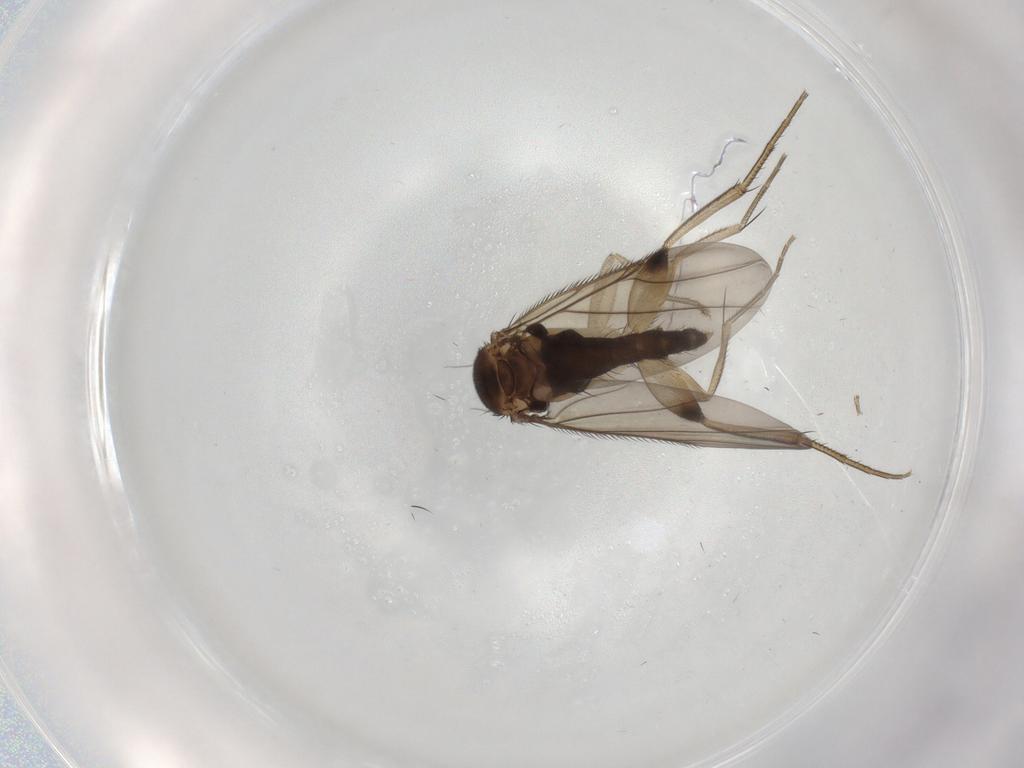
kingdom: Animalia
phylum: Arthropoda
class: Insecta
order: Diptera
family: Phoridae
